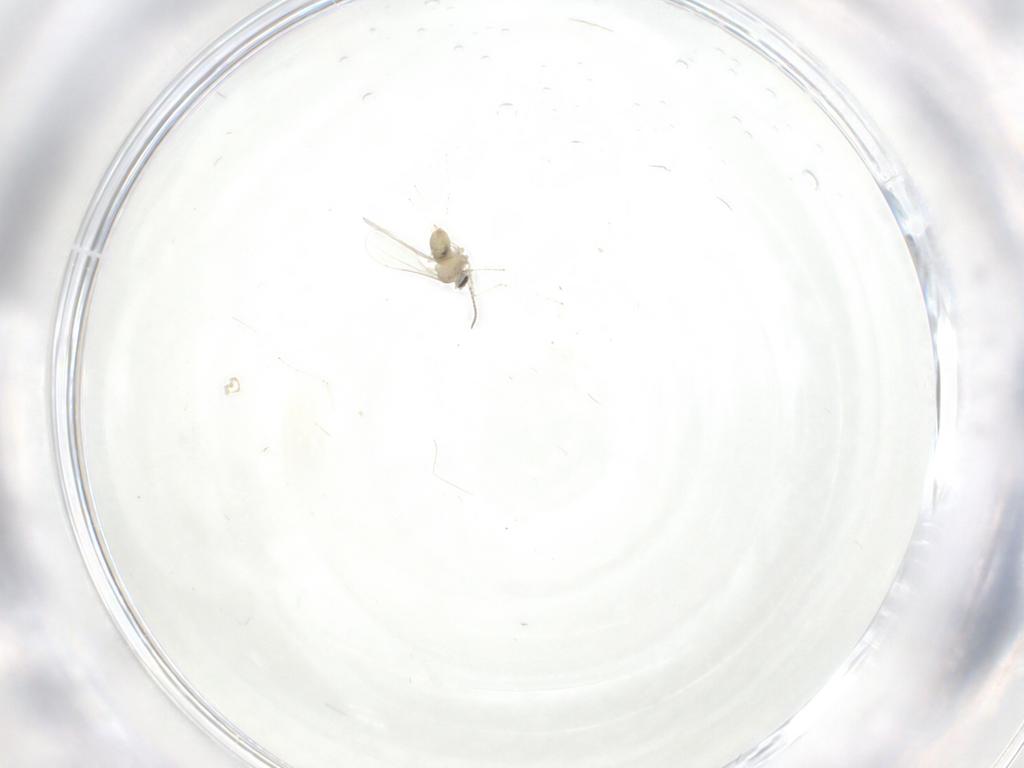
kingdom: Animalia
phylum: Arthropoda
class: Insecta
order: Diptera
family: Cecidomyiidae
